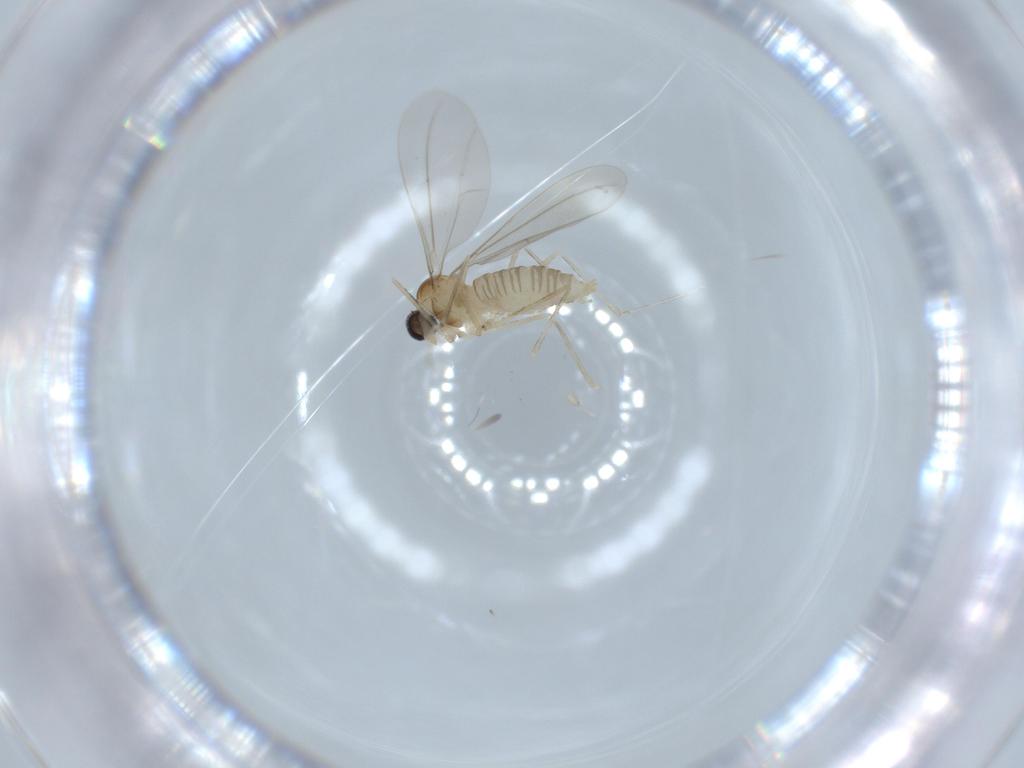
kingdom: Animalia
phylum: Arthropoda
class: Insecta
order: Diptera
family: Cecidomyiidae
